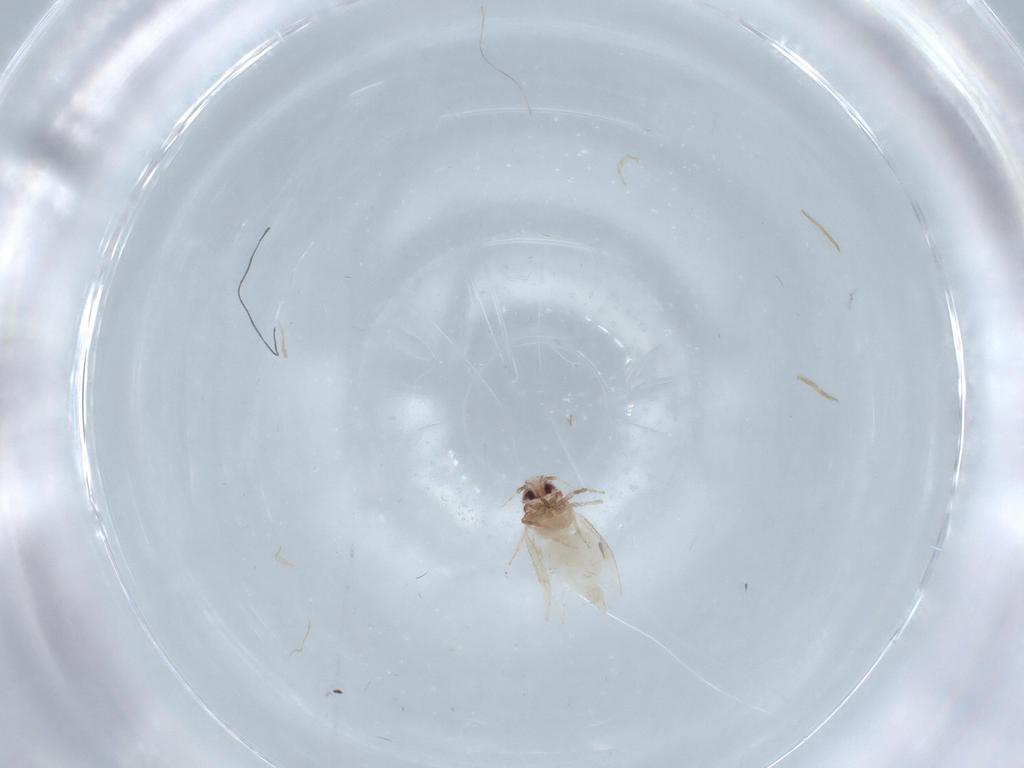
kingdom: Animalia
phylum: Arthropoda
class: Insecta
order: Hemiptera
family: Aleyrodidae
